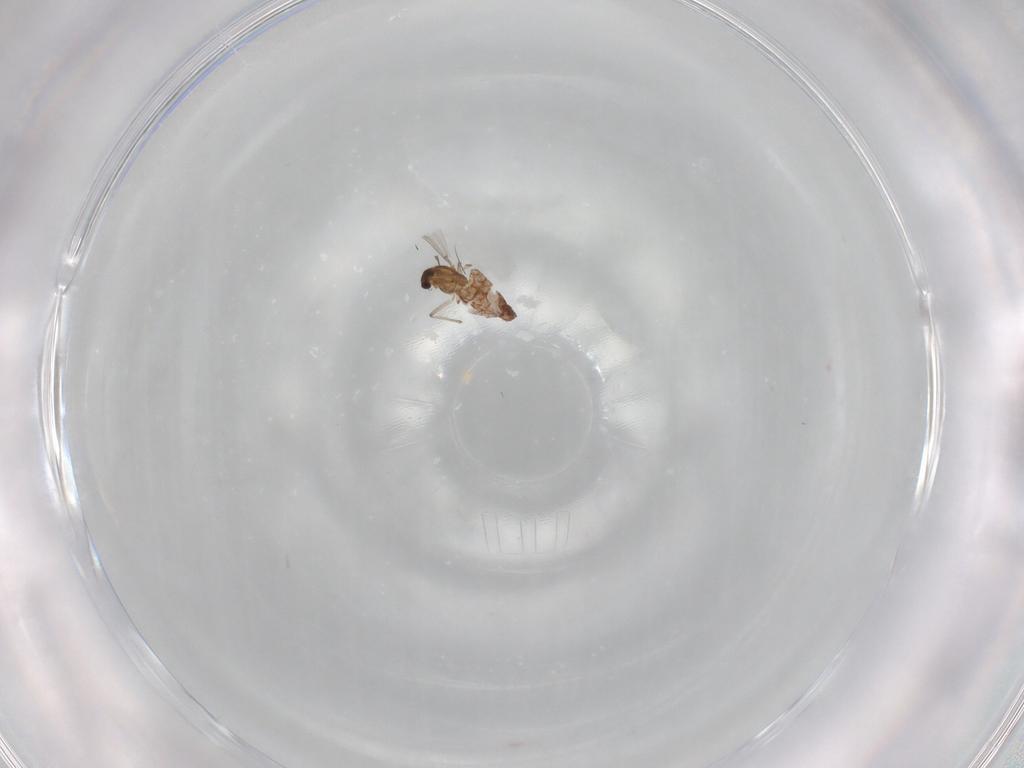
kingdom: Animalia
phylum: Arthropoda
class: Insecta
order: Diptera
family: Chironomidae
